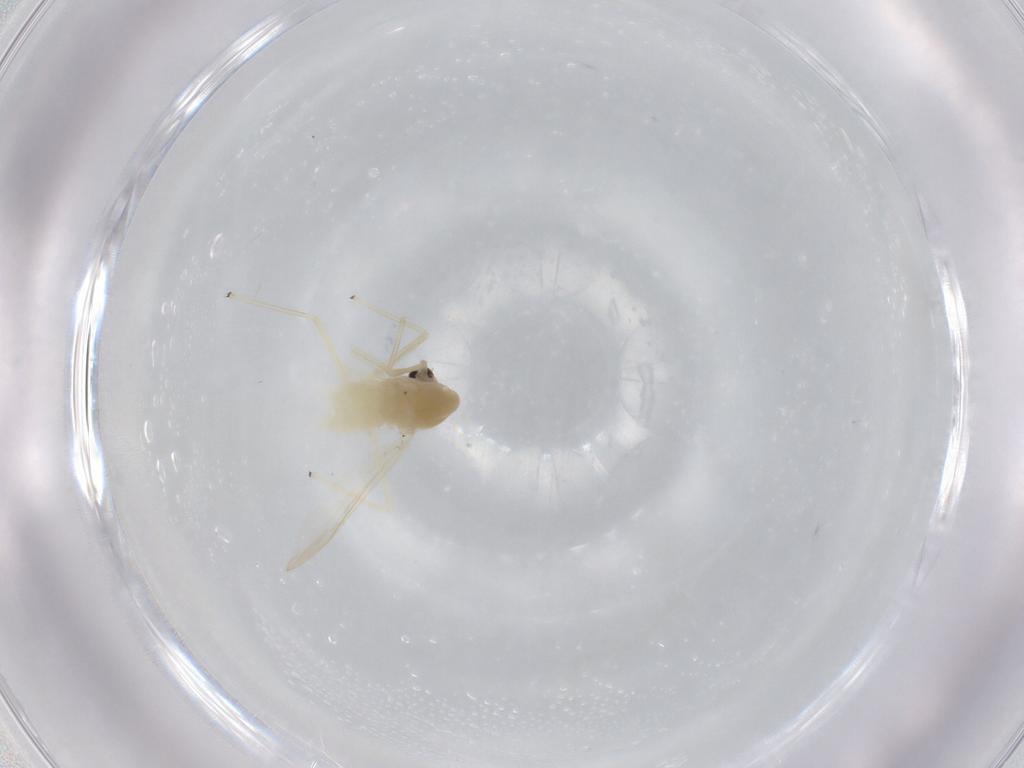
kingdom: Animalia
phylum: Arthropoda
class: Insecta
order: Diptera
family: Chironomidae
